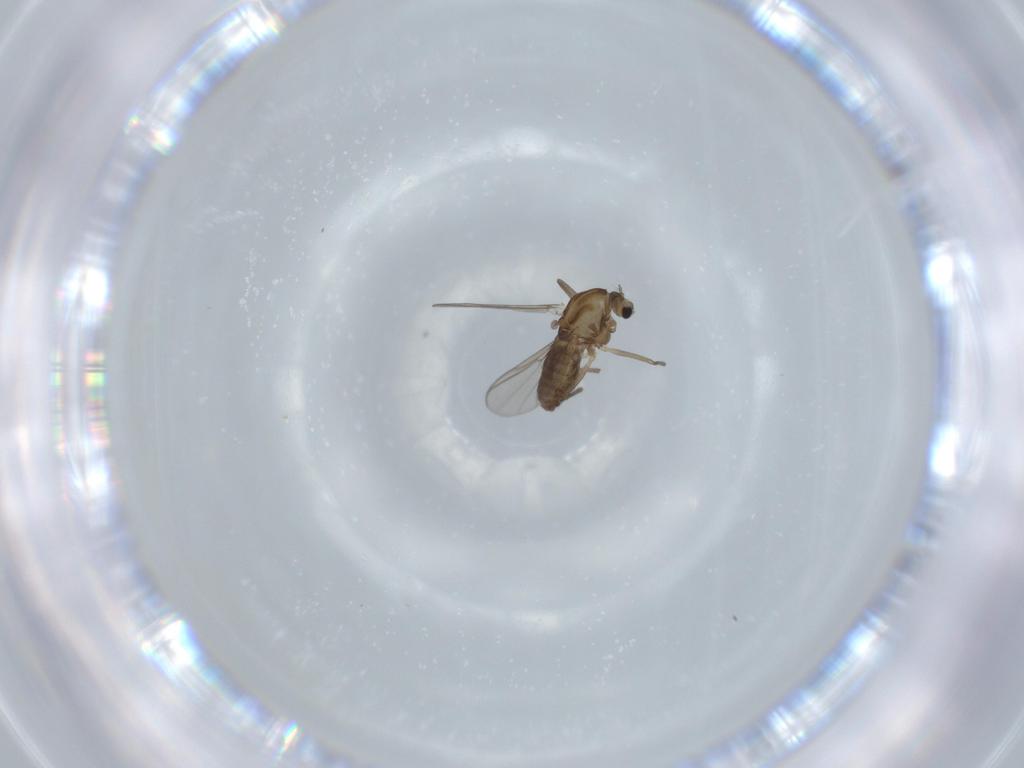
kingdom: Animalia
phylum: Arthropoda
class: Insecta
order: Diptera
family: Chironomidae
